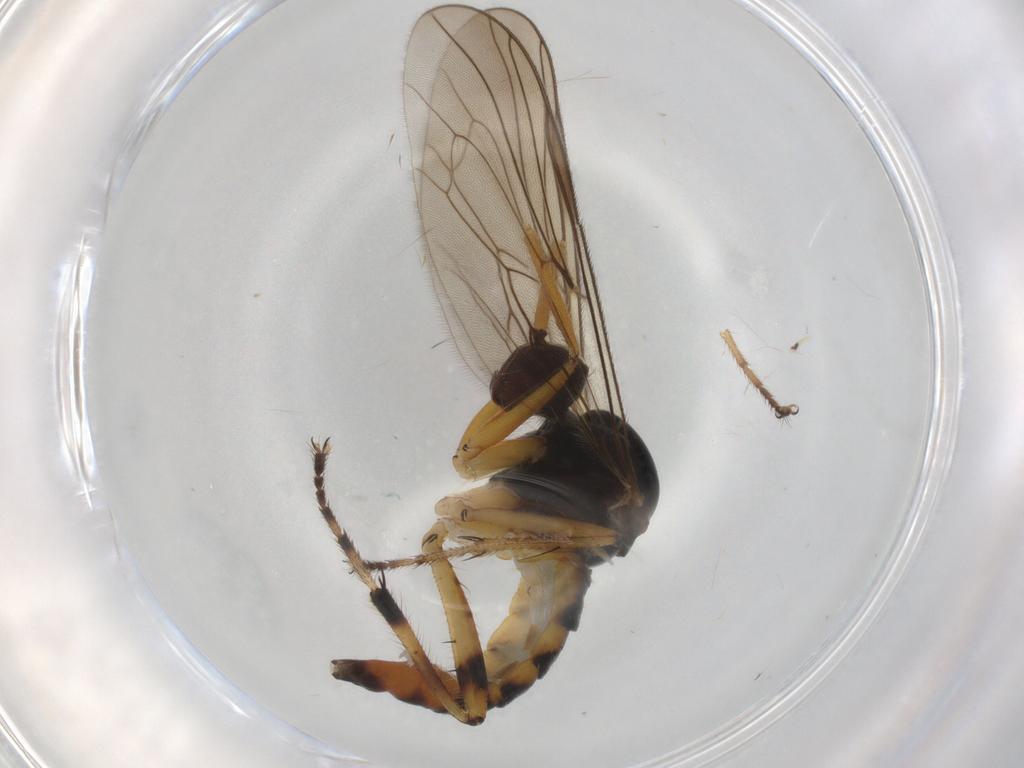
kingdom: Animalia
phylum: Arthropoda
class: Insecta
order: Diptera
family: Hybotidae
